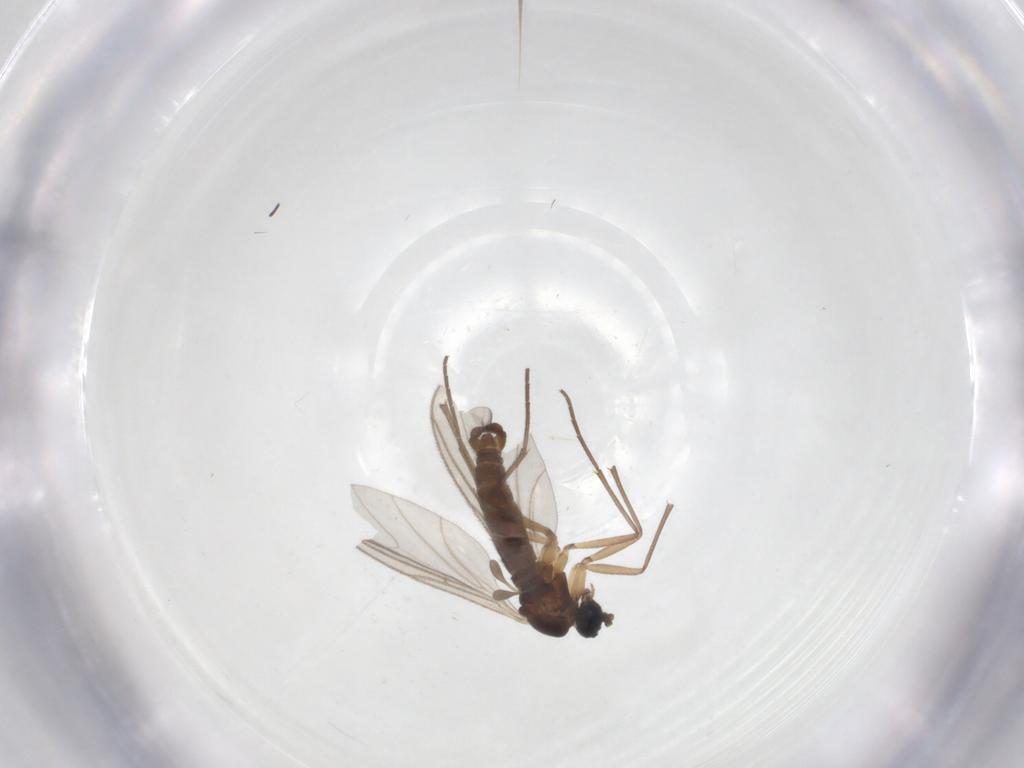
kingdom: Animalia
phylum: Arthropoda
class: Insecta
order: Diptera
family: Sciaridae
